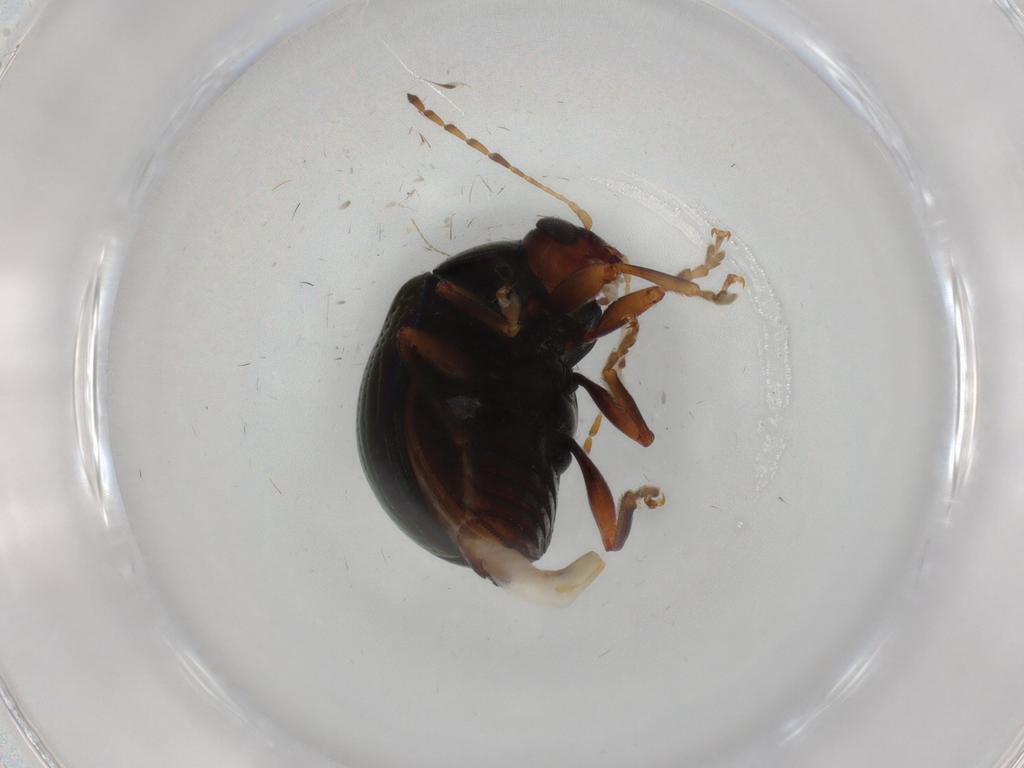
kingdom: Animalia
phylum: Arthropoda
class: Insecta
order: Coleoptera
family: Chrysomelidae
